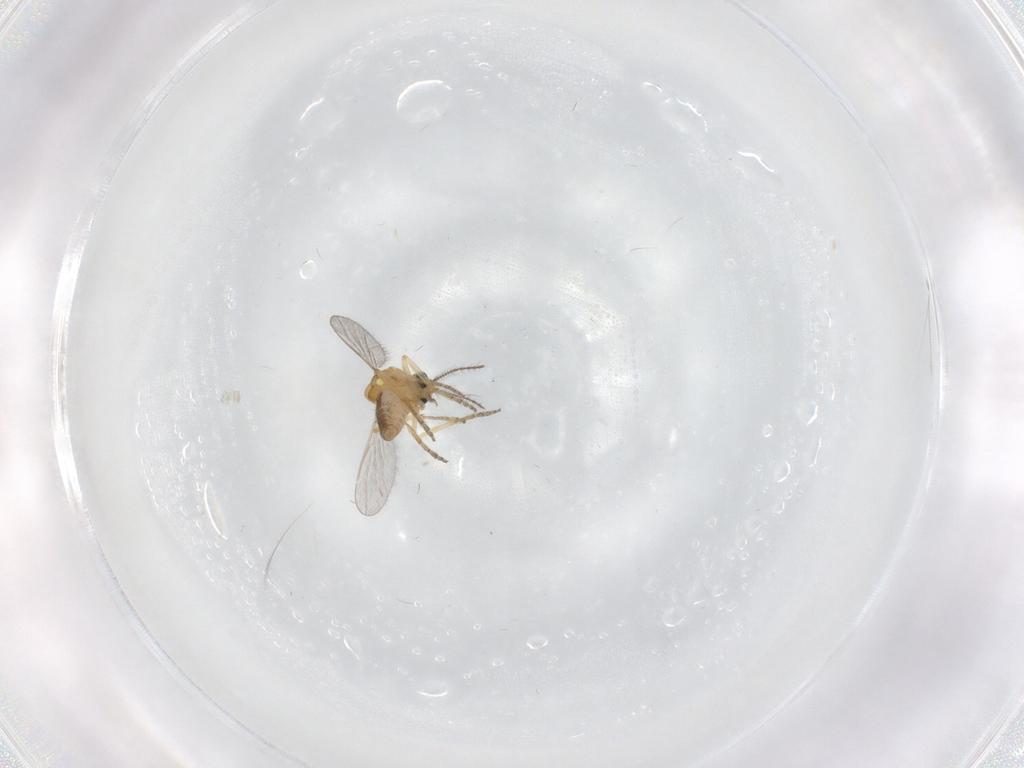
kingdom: Animalia
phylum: Arthropoda
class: Insecta
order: Diptera
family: Chironomidae
